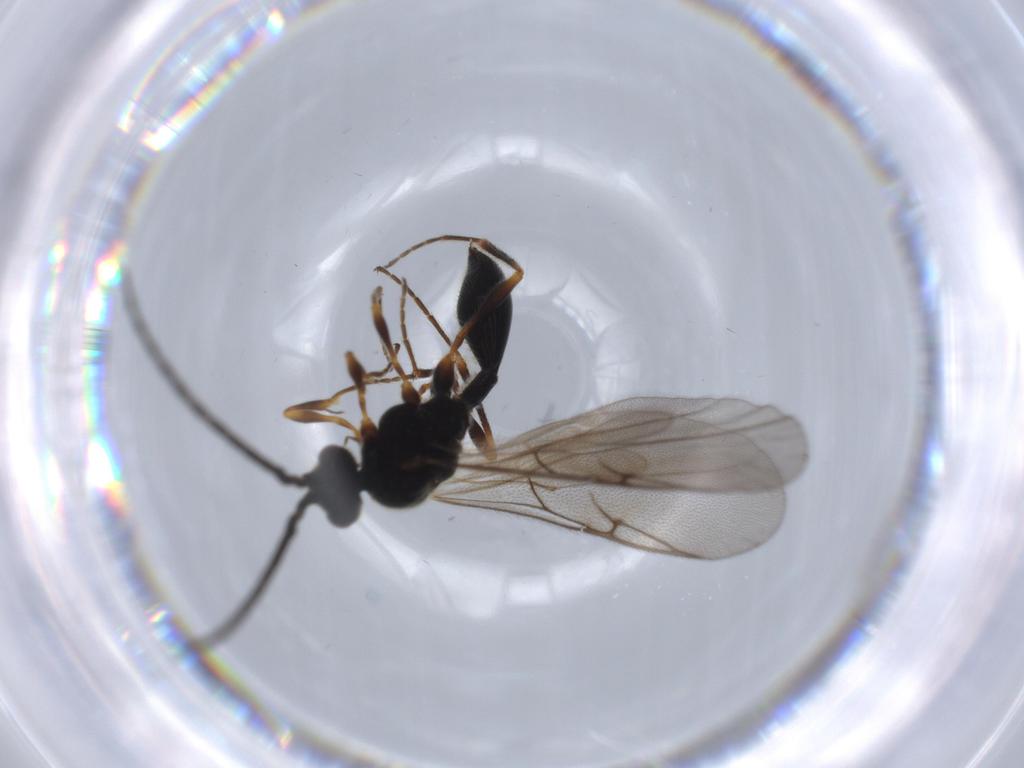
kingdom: Animalia
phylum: Arthropoda
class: Insecta
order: Hymenoptera
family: Diapriidae
